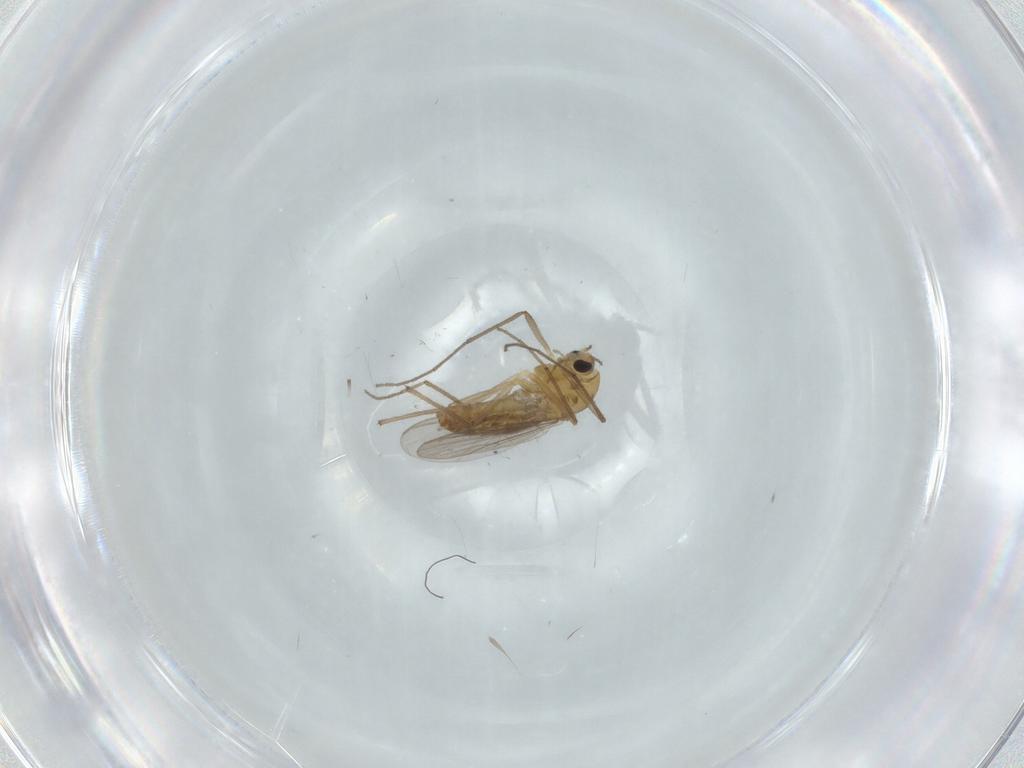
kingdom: Animalia
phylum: Arthropoda
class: Insecta
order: Diptera
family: Chironomidae
